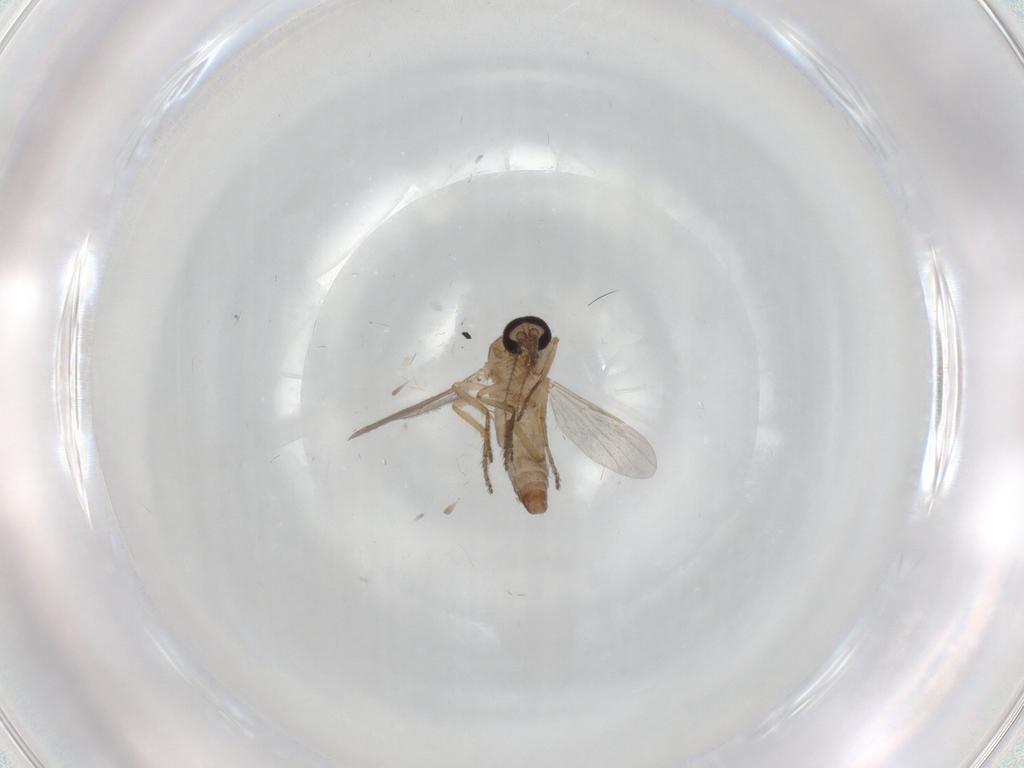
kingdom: Animalia
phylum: Arthropoda
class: Insecta
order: Diptera
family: Ceratopogonidae
